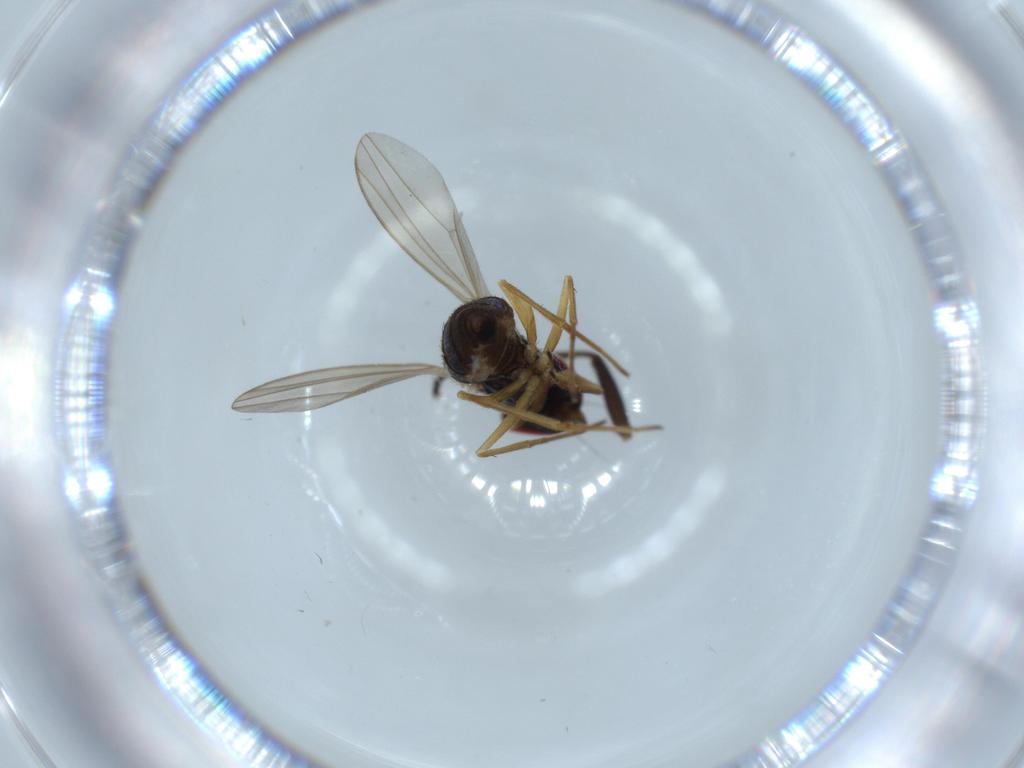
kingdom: Animalia
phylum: Arthropoda
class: Insecta
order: Diptera
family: Dolichopodidae
